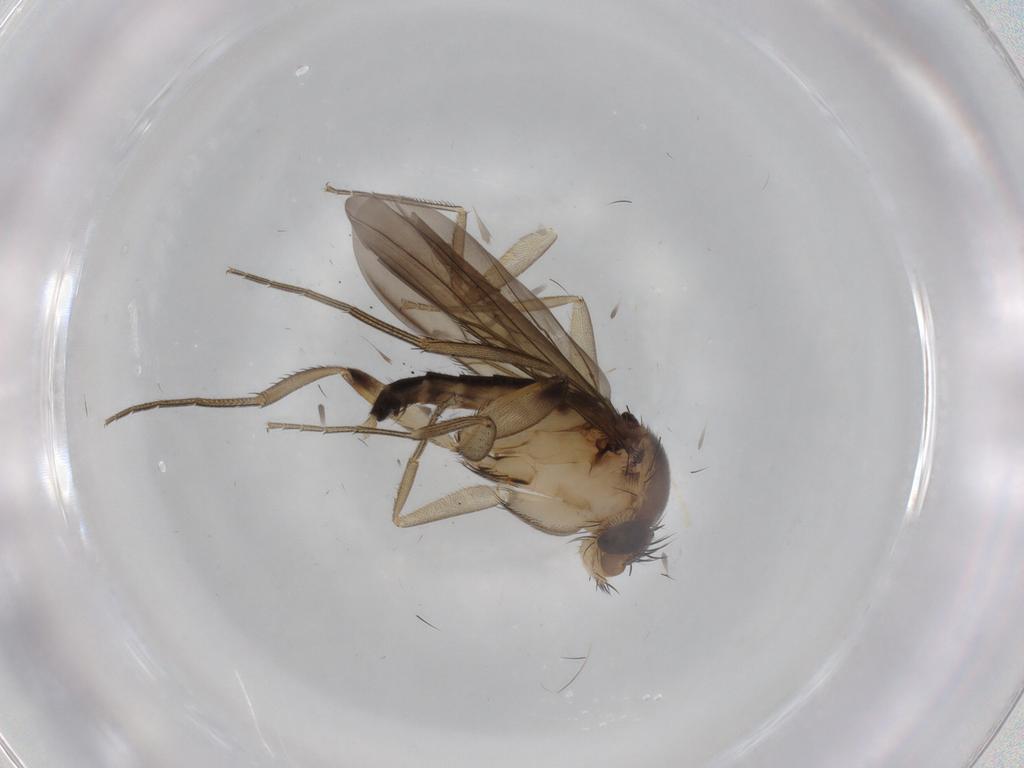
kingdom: Animalia
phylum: Arthropoda
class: Insecta
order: Diptera
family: Phoridae
